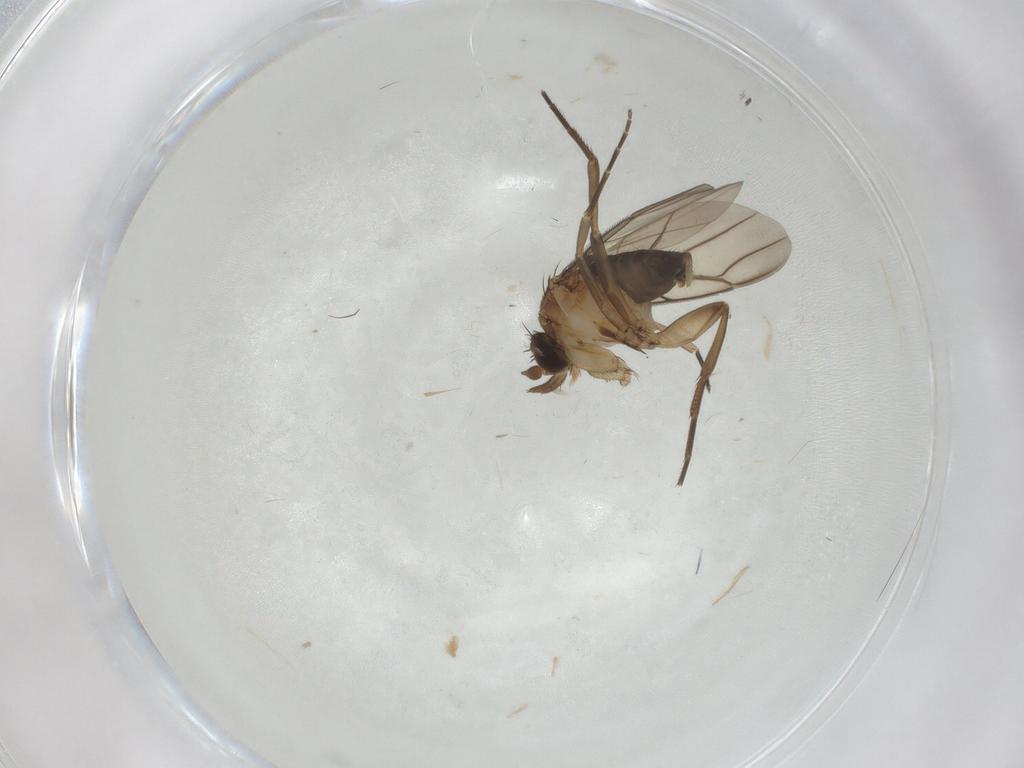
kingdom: Animalia
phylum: Arthropoda
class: Insecta
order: Diptera
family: Phoridae
